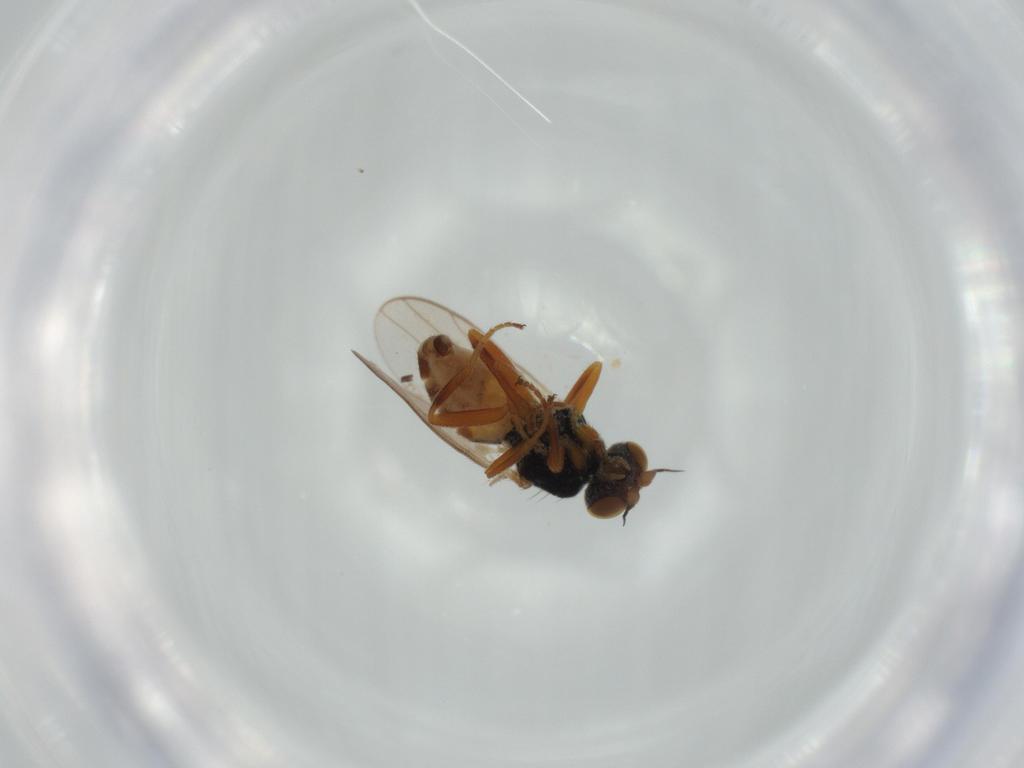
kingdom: Animalia
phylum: Arthropoda
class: Insecta
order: Diptera
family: Chloropidae
